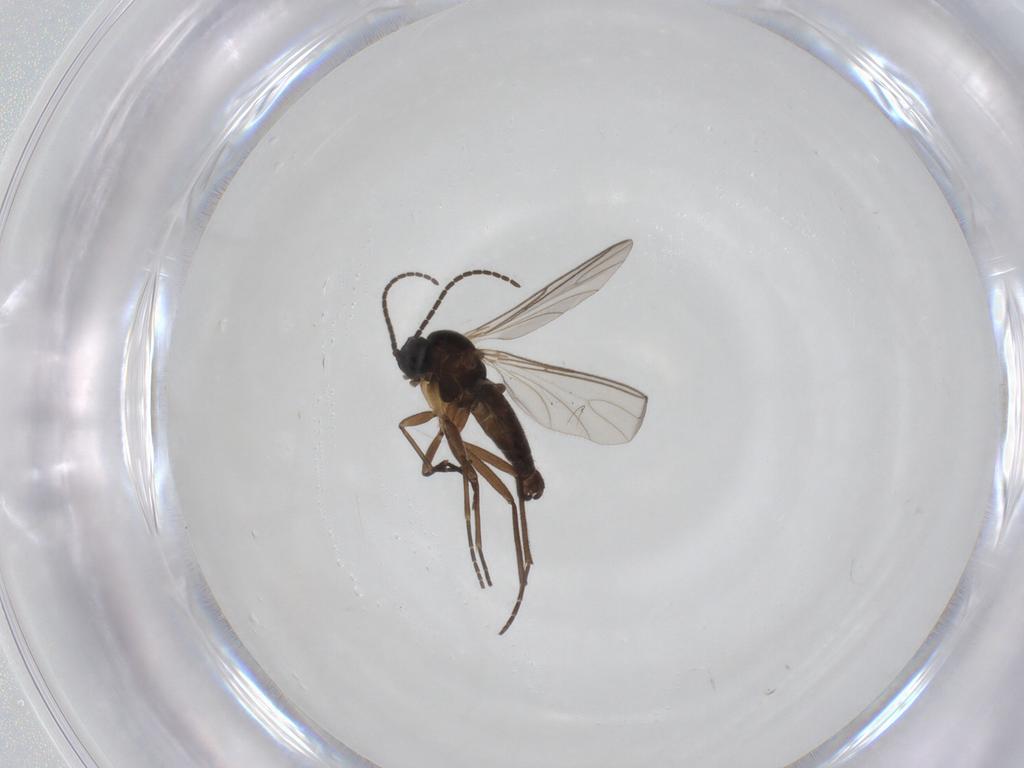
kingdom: Animalia
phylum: Arthropoda
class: Insecta
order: Diptera
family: Sciaridae
